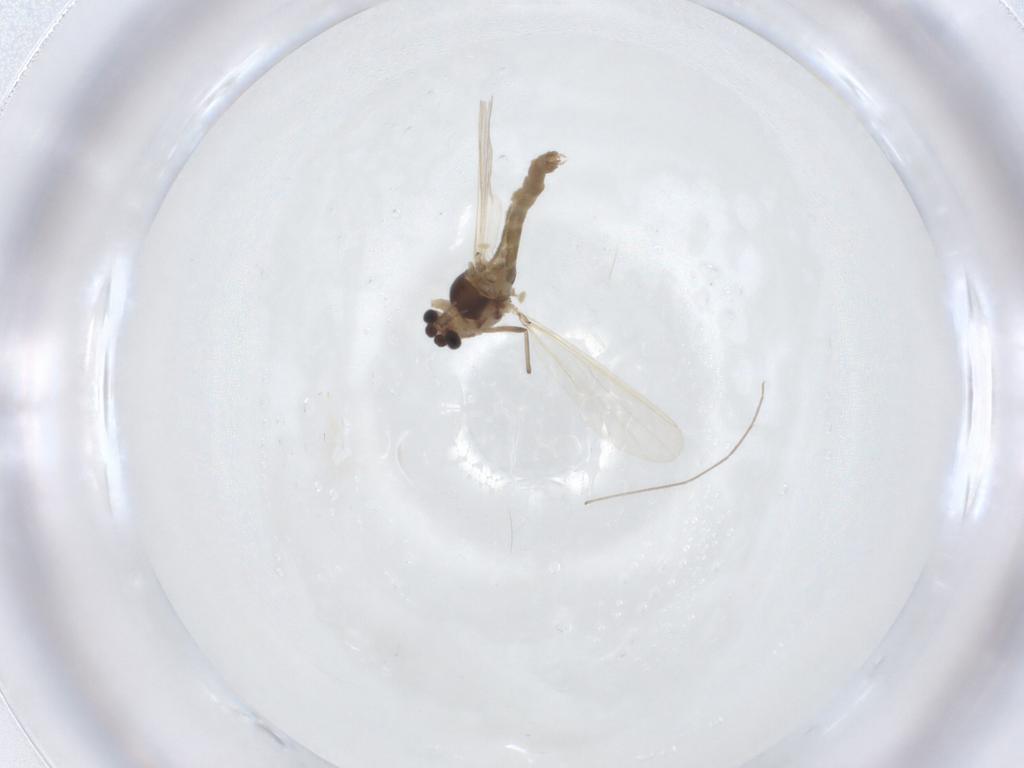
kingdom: Animalia
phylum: Arthropoda
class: Insecta
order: Diptera
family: Chironomidae
